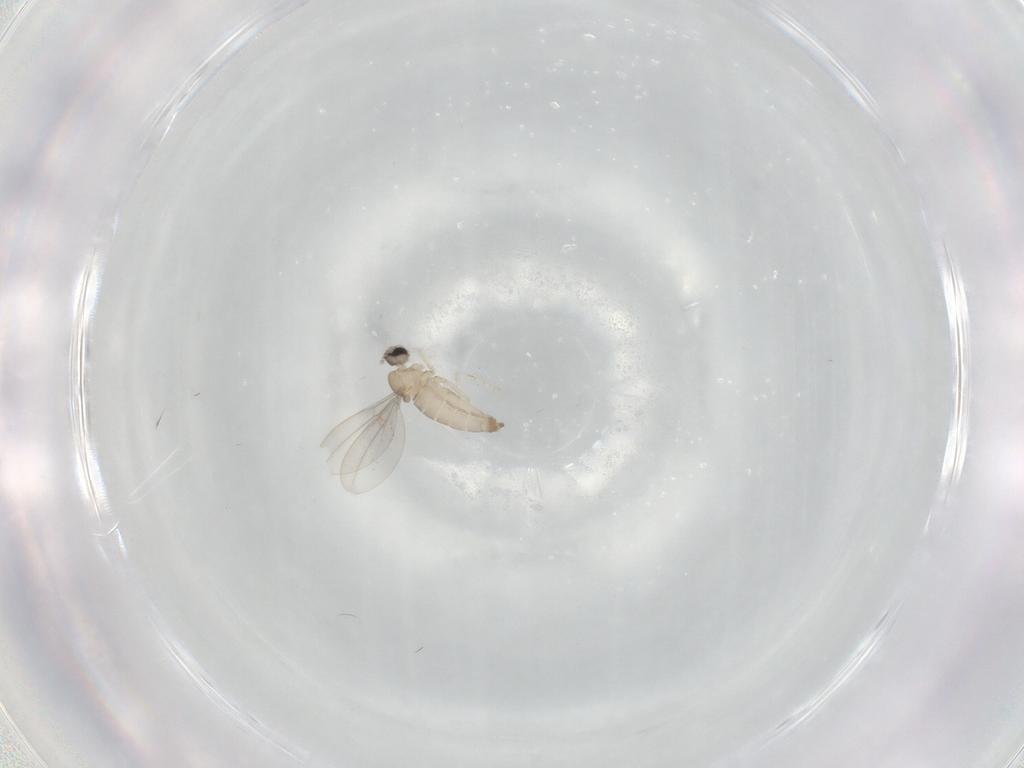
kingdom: Animalia
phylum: Arthropoda
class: Insecta
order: Diptera
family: Cecidomyiidae
